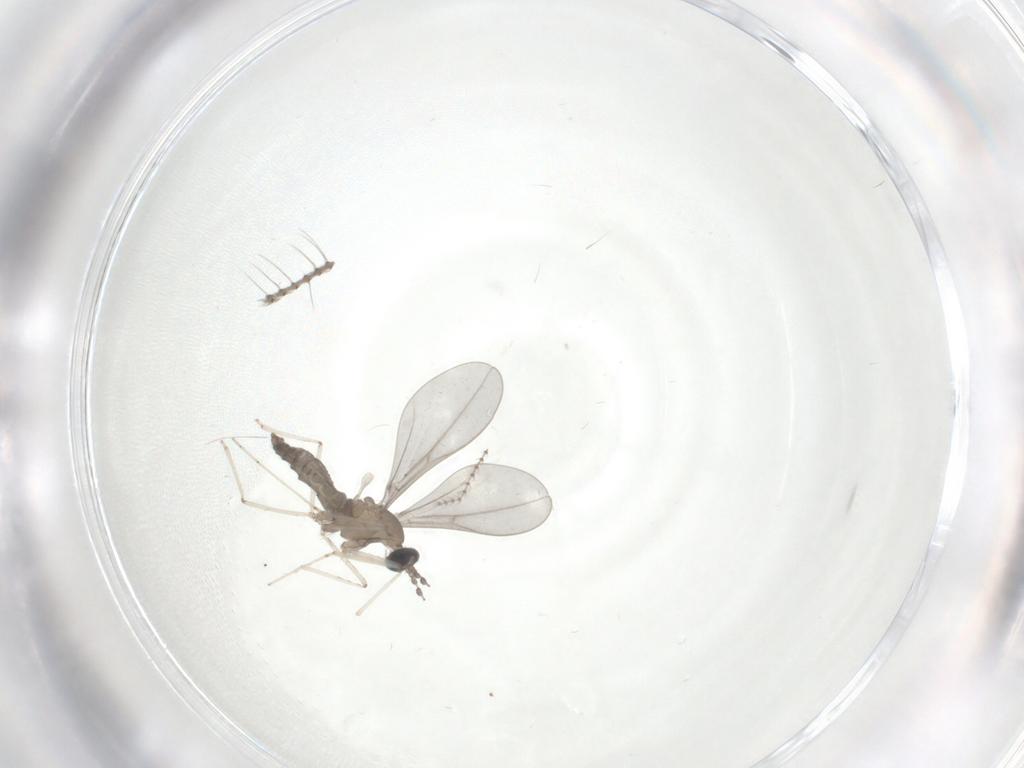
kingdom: Animalia
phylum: Arthropoda
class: Insecta
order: Diptera
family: Cecidomyiidae
